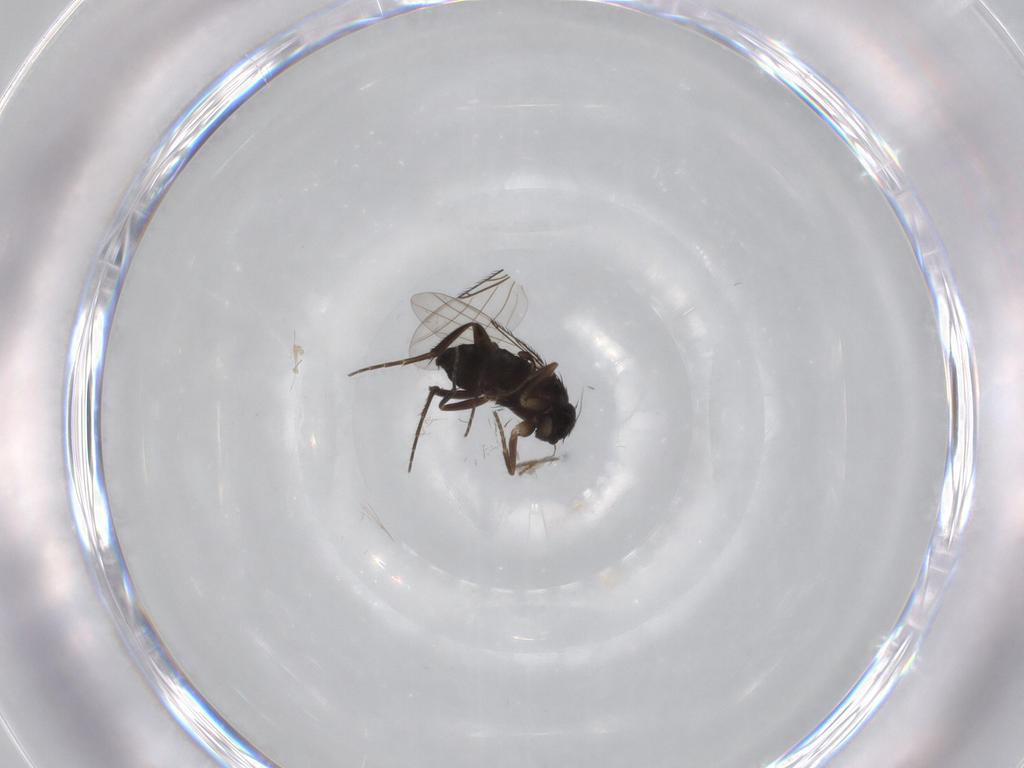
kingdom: Animalia
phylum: Arthropoda
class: Insecta
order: Diptera
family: Phoridae
